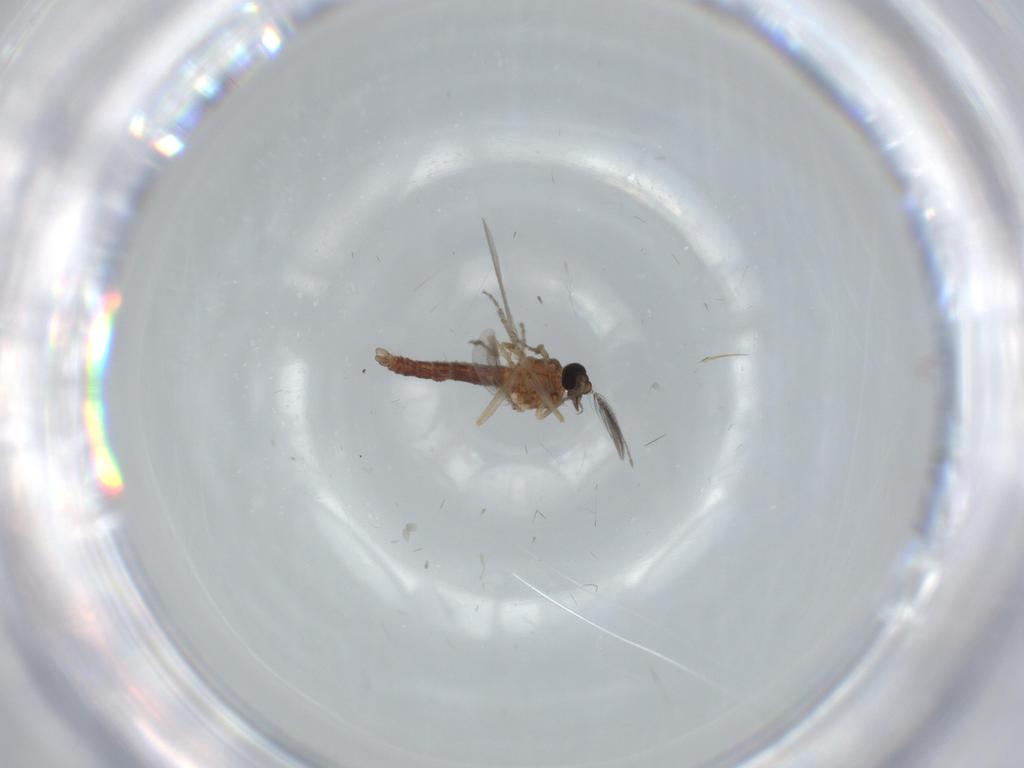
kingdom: Animalia
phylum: Arthropoda
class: Insecta
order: Diptera
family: Ceratopogonidae
